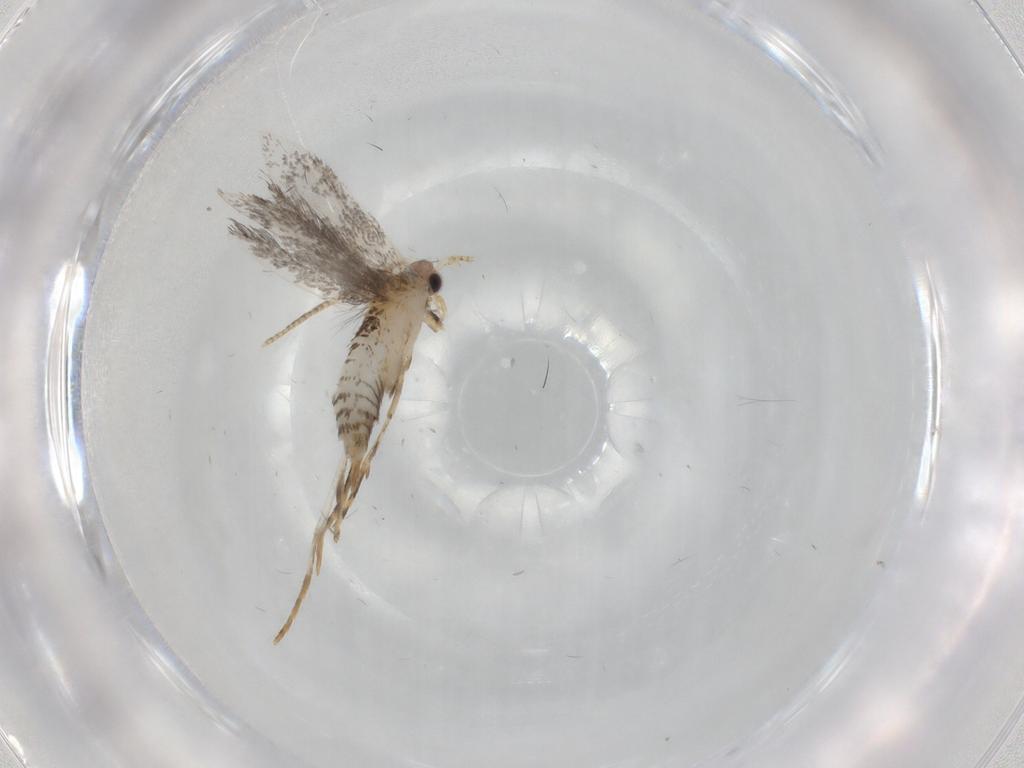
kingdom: Animalia
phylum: Arthropoda
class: Insecta
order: Lepidoptera
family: Tineidae
